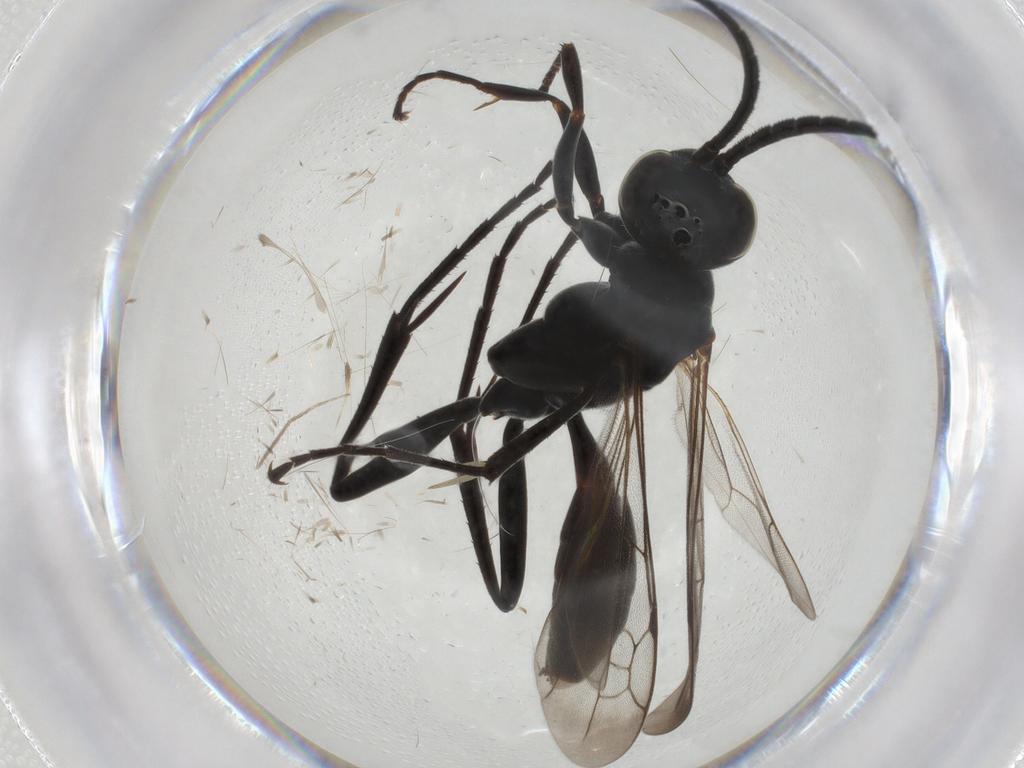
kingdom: Animalia
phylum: Arthropoda
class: Insecta
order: Hymenoptera
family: Pompilidae
